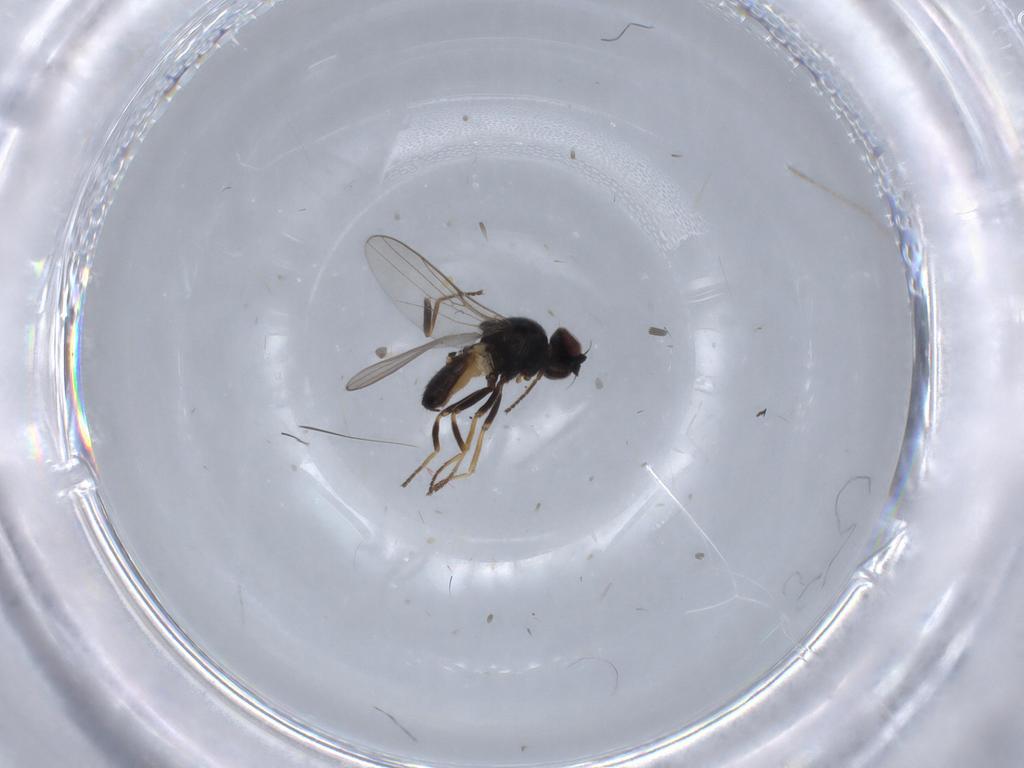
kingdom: Animalia
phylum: Arthropoda
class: Insecta
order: Diptera
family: Chloropidae
